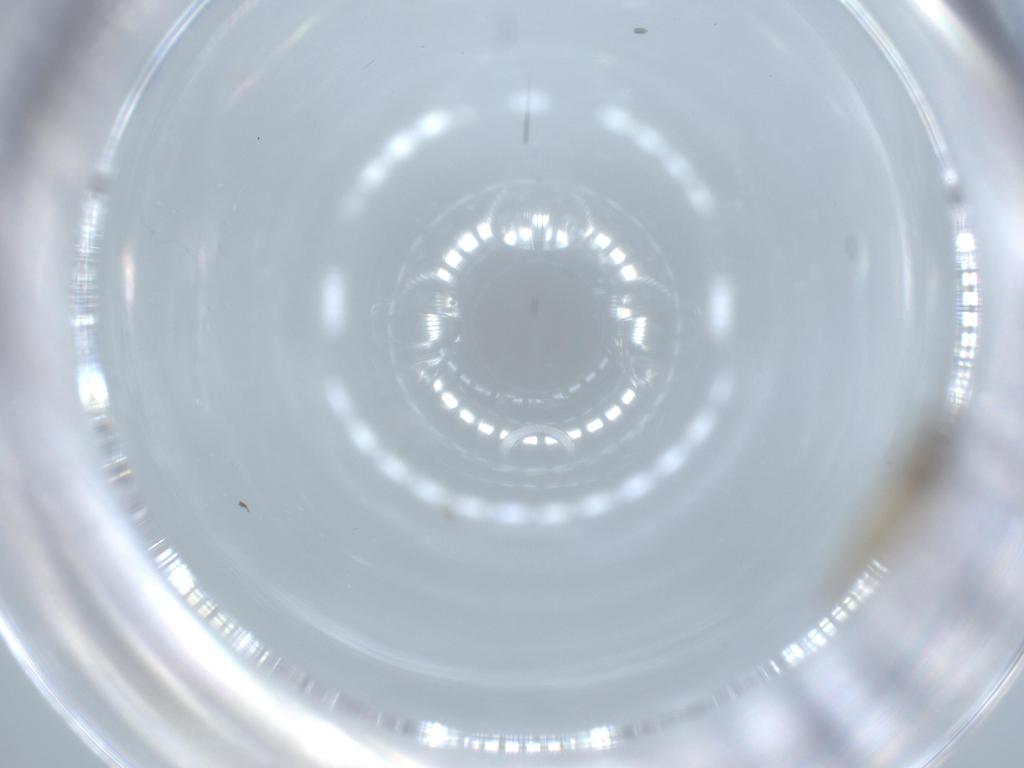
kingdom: Animalia
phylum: Arthropoda
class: Insecta
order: Diptera
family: Cecidomyiidae
